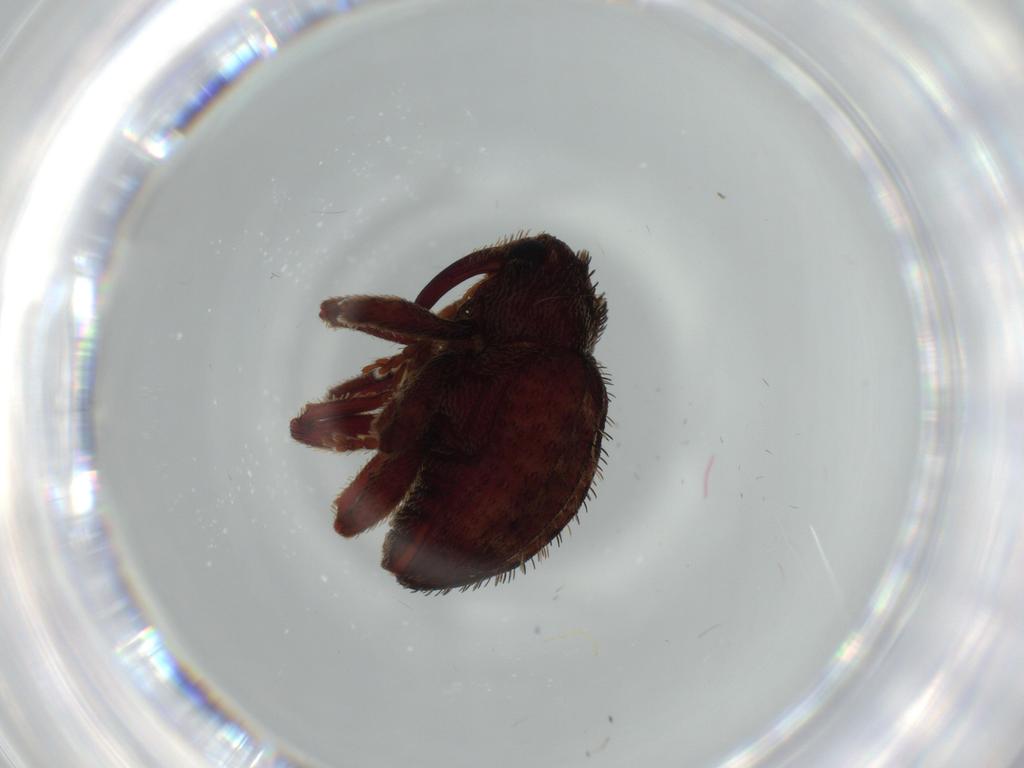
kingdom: Animalia
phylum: Arthropoda
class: Insecta
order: Coleoptera
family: Curculionidae
